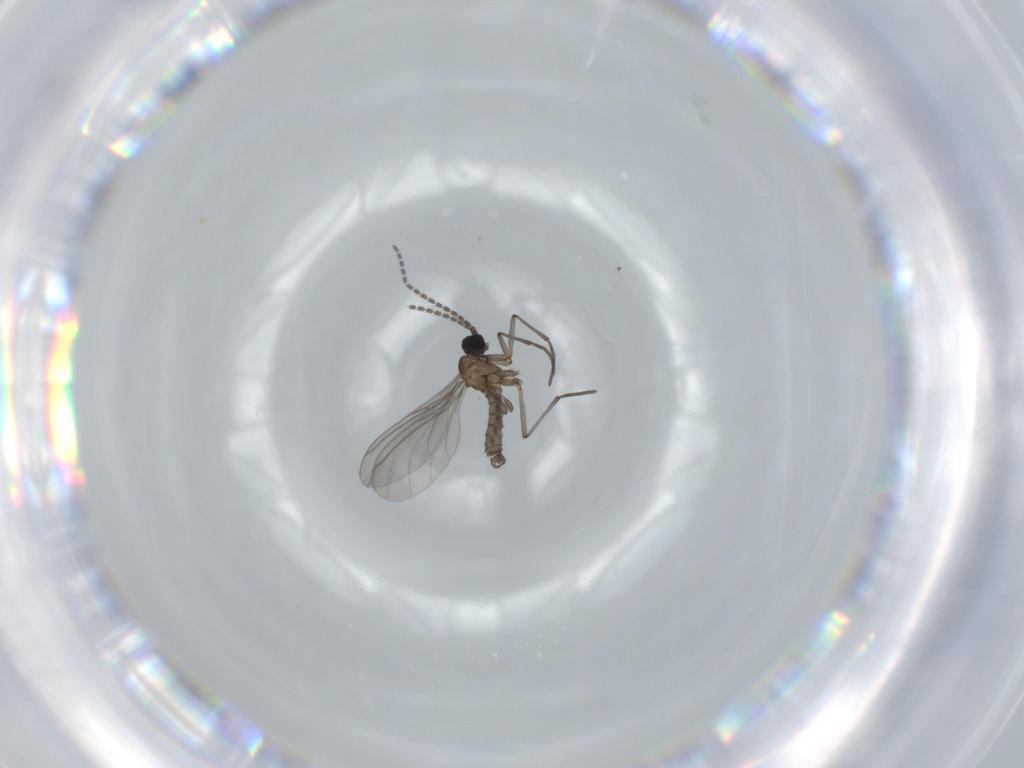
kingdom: Animalia
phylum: Arthropoda
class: Insecta
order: Diptera
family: Sciaridae
